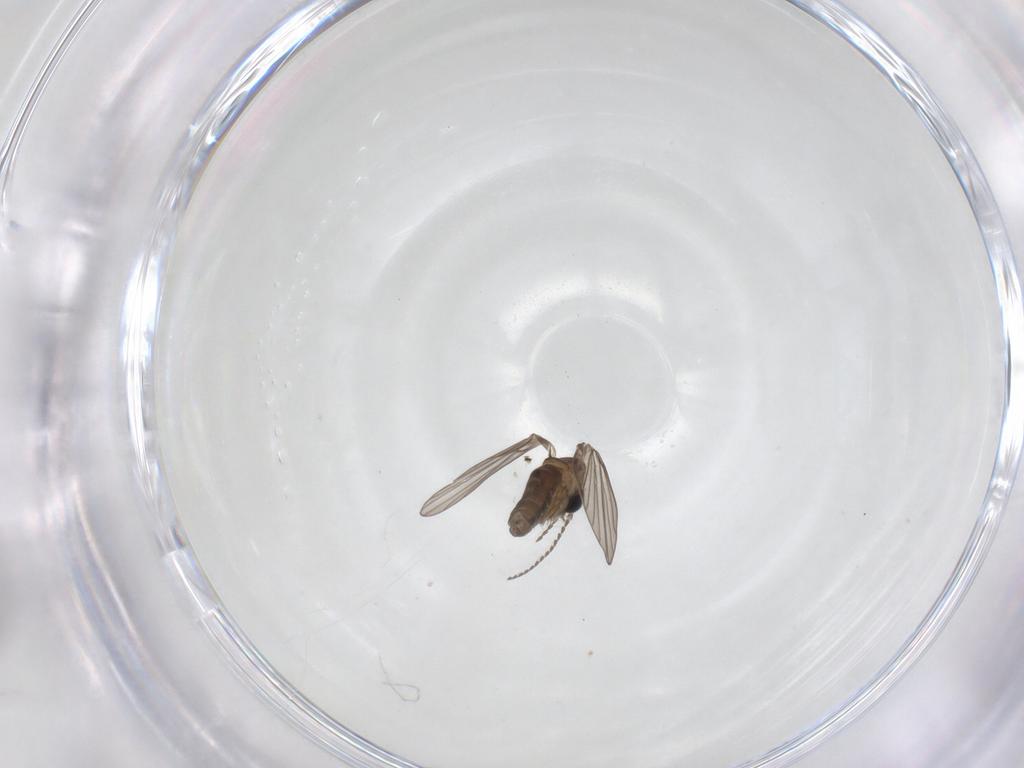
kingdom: Animalia
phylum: Arthropoda
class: Insecta
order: Diptera
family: Psychodidae
